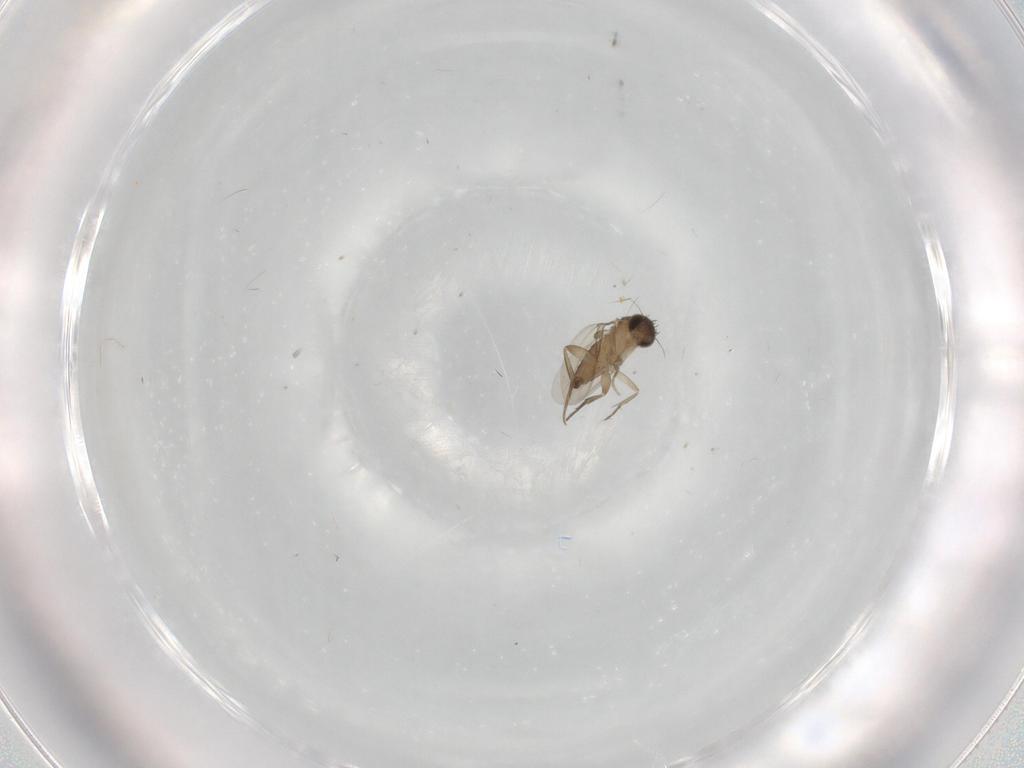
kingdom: Animalia
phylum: Arthropoda
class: Insecta
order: Diptera
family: Phoridae
